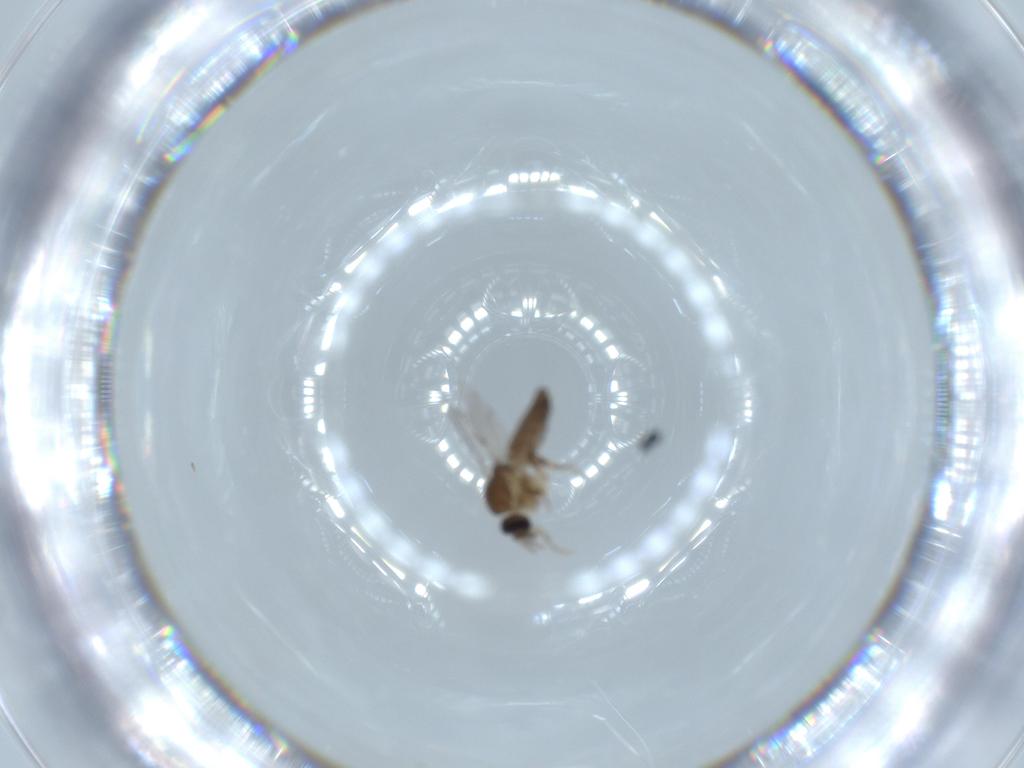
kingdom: Animalia
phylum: Arthropoda
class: Insecta
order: Diptera
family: Ceratopogonidae
